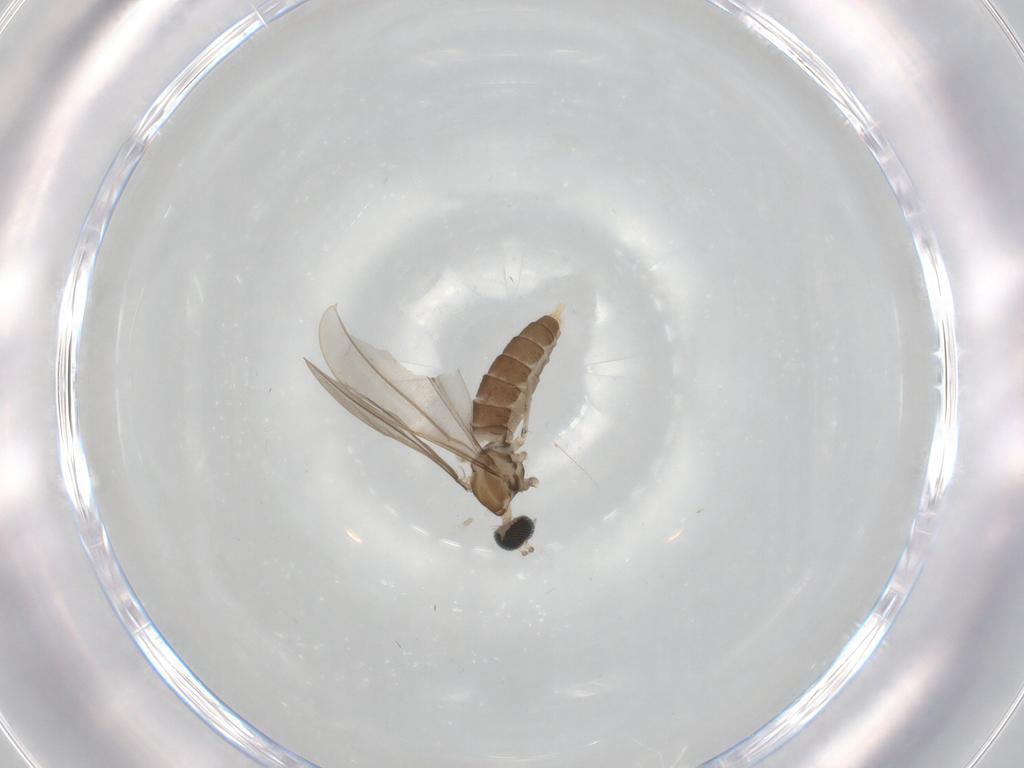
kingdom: Animalia
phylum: Arthropoda
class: Insecta
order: Diptera
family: Cecidomyiidae
